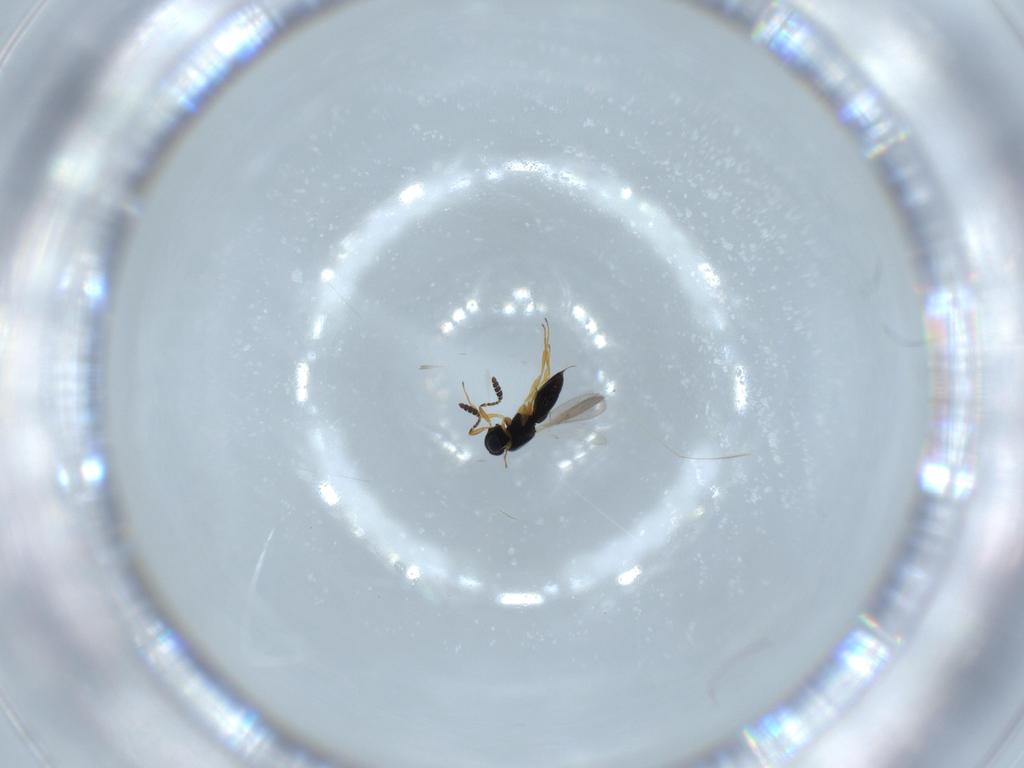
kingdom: Animalia
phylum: Arthropoda
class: Insecta
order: Hymenoptera
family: Scelionidae
